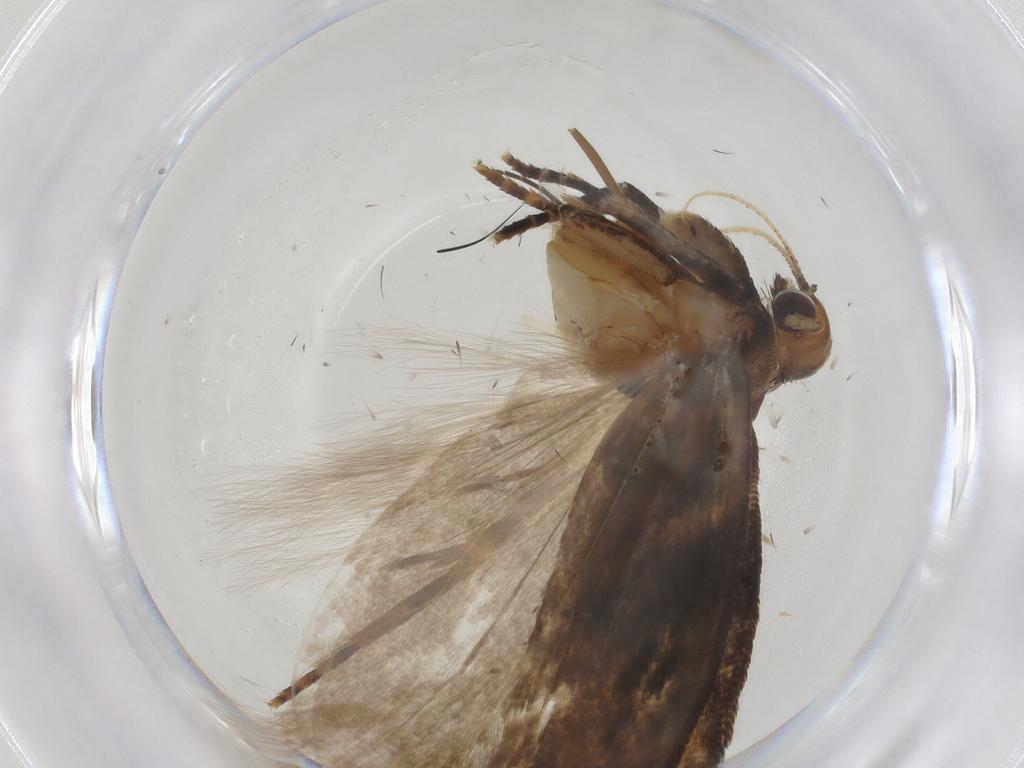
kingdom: Animalia
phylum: Arthropoda
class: Insecta
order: Lepidoptera
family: Gelechiidae
